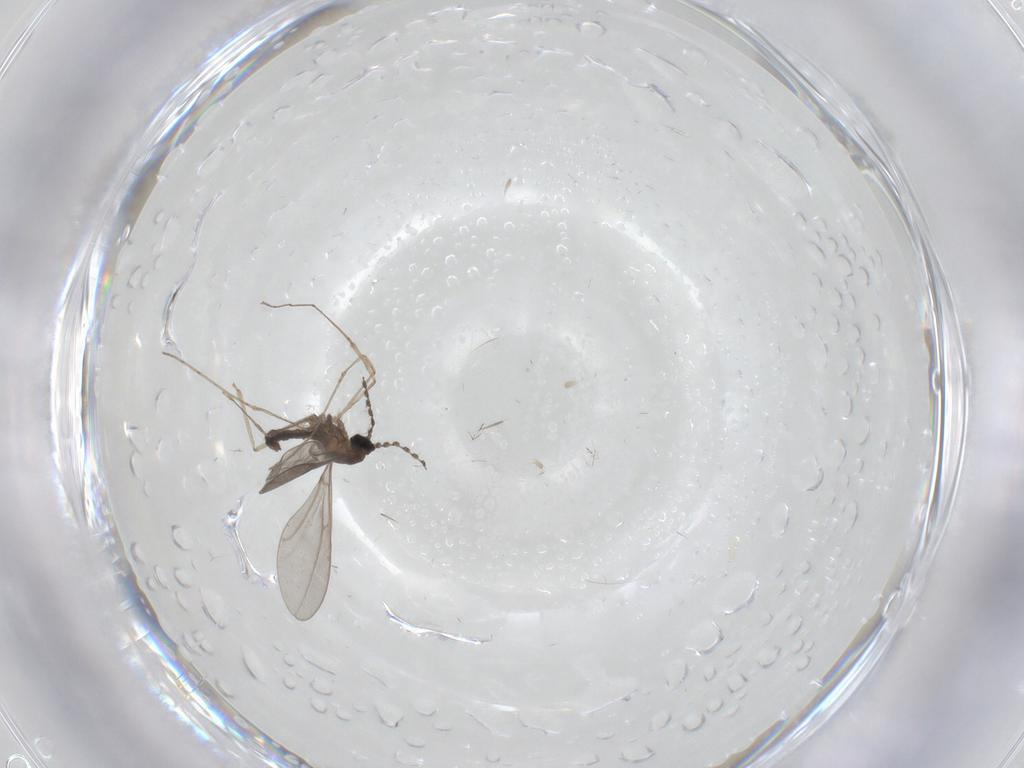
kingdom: Animalia
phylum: Arthropoda
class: Insecta
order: Diptera
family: Cecidomyiidae
